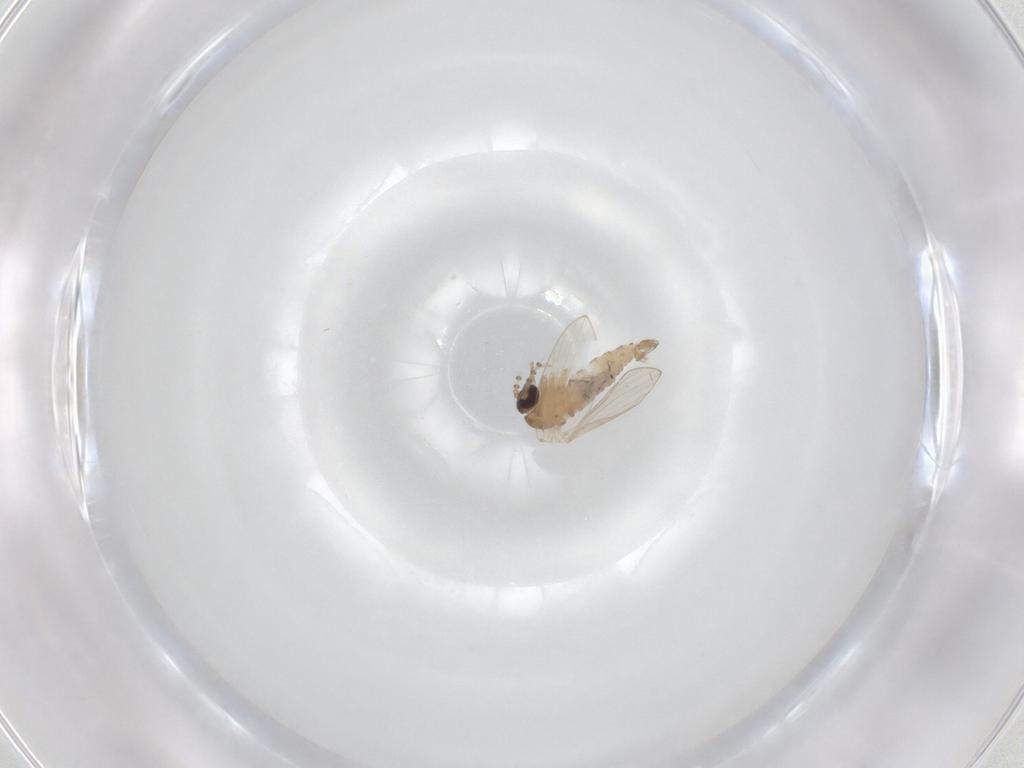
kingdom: Animalia
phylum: Arthropoda
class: Insecta
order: Diptera
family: Psychodidae
